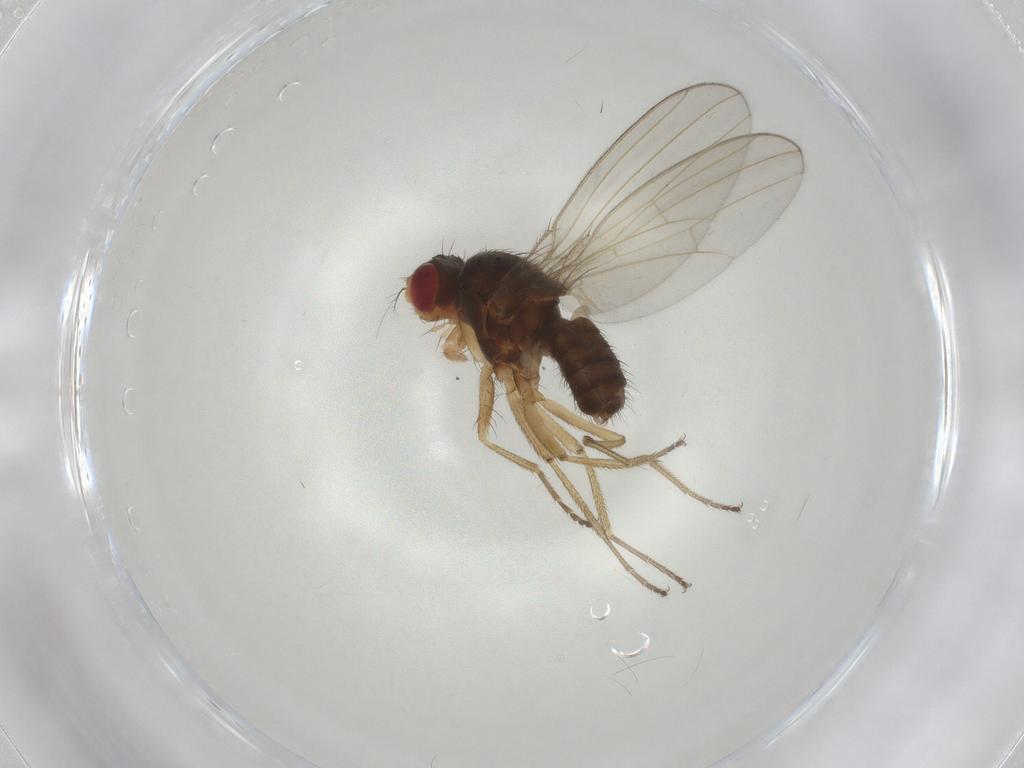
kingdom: Animalia
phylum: Arthropoda
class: Insecta
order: Diptera
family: Drosophilidae
